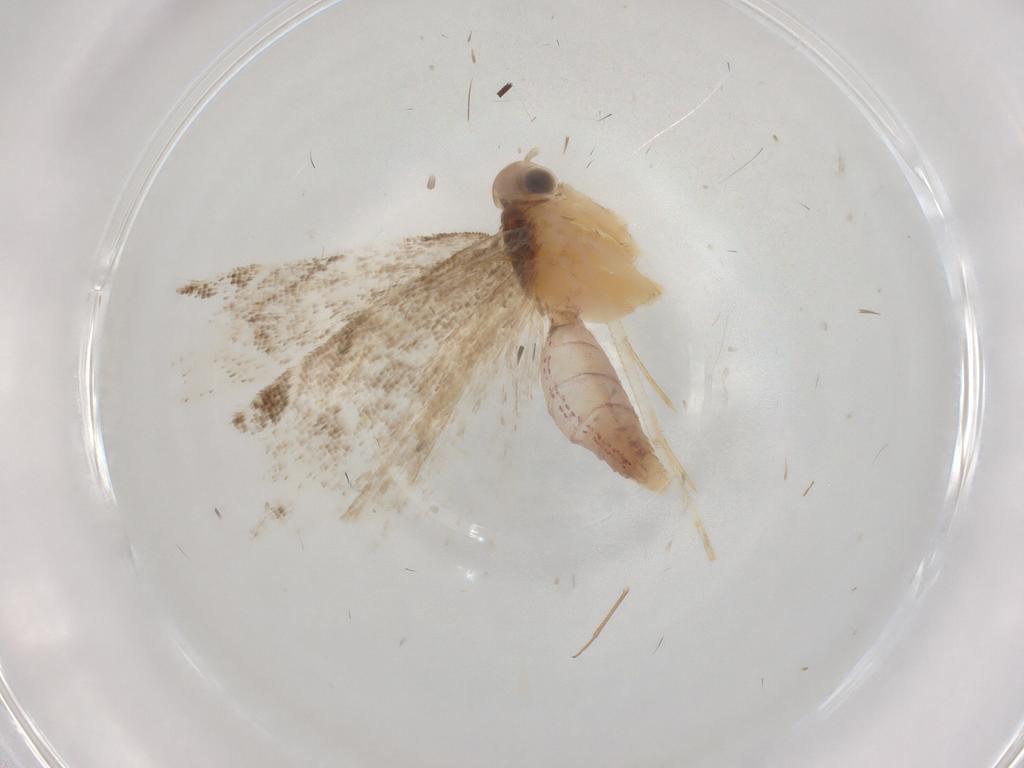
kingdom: Animalia
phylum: Arthropoda
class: Insecta
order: Lepidoptera
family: Gelechiidae
